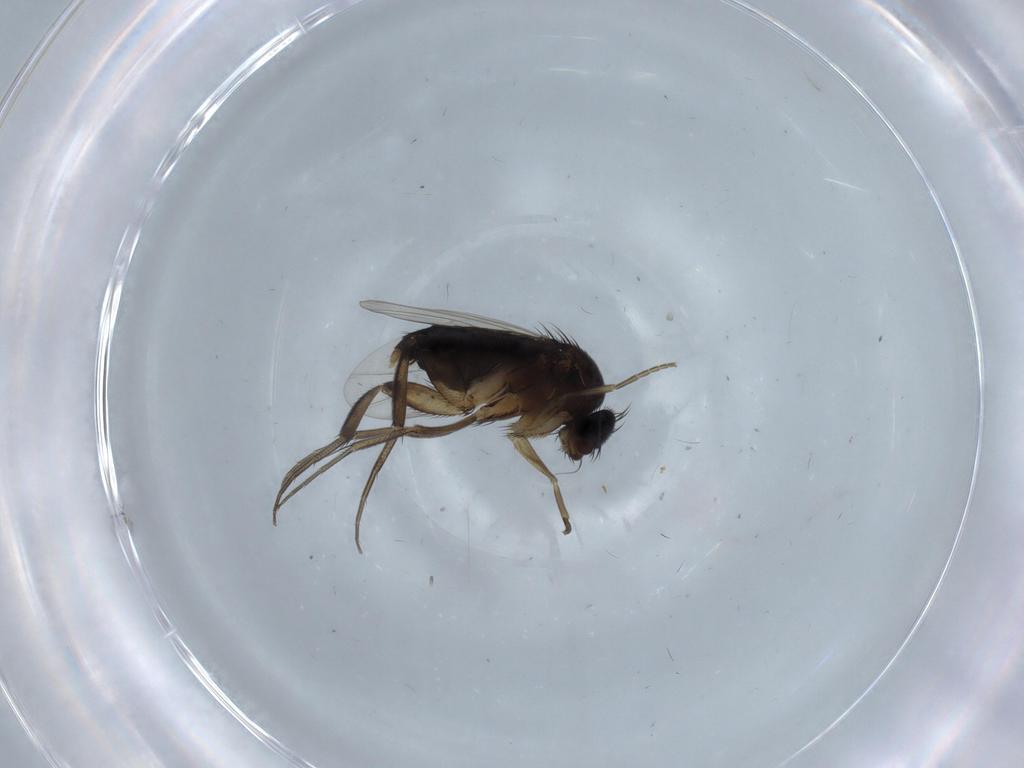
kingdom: Animalia
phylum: Arthropoda
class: Insecta
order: Diptera
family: Phoridae
